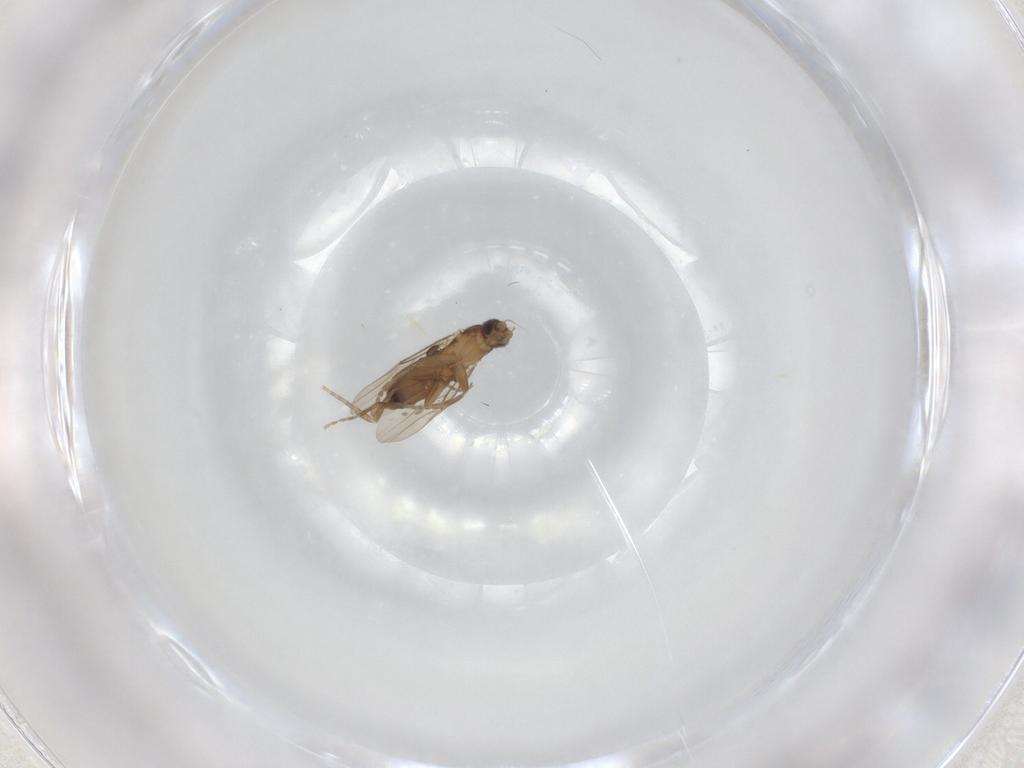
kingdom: Animalia
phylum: Arthropoda
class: Insecta
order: Diptera
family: Phoridae
